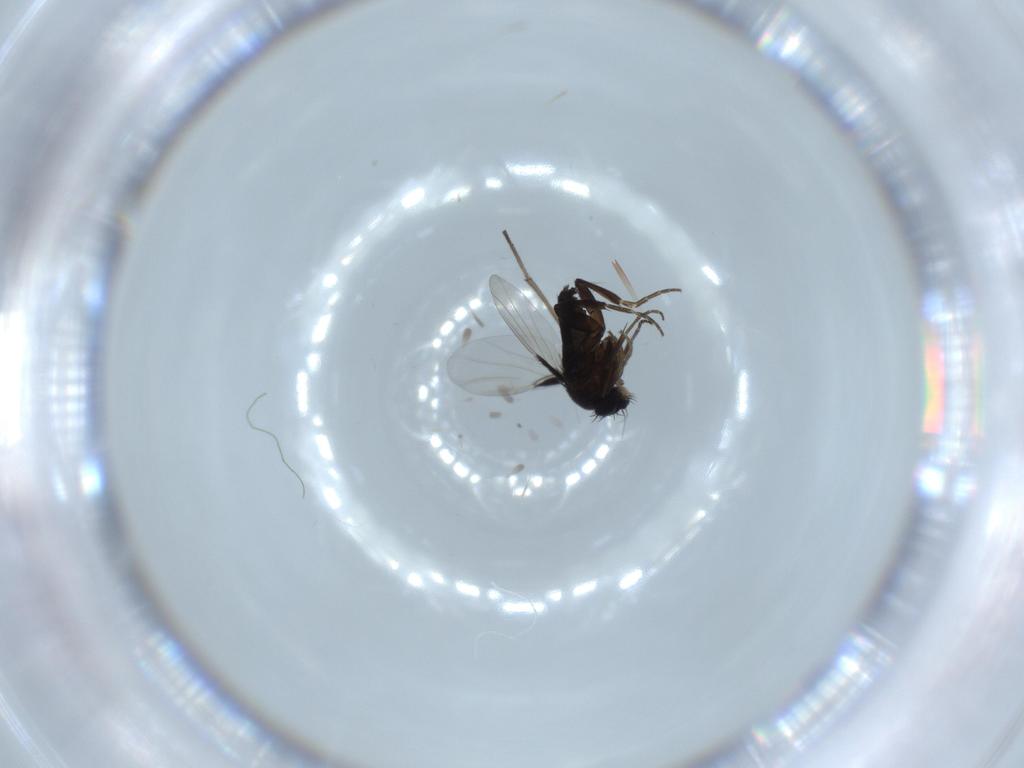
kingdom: Animalia
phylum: Arthropoda
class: Insecta
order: Diptera
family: Phoridae
